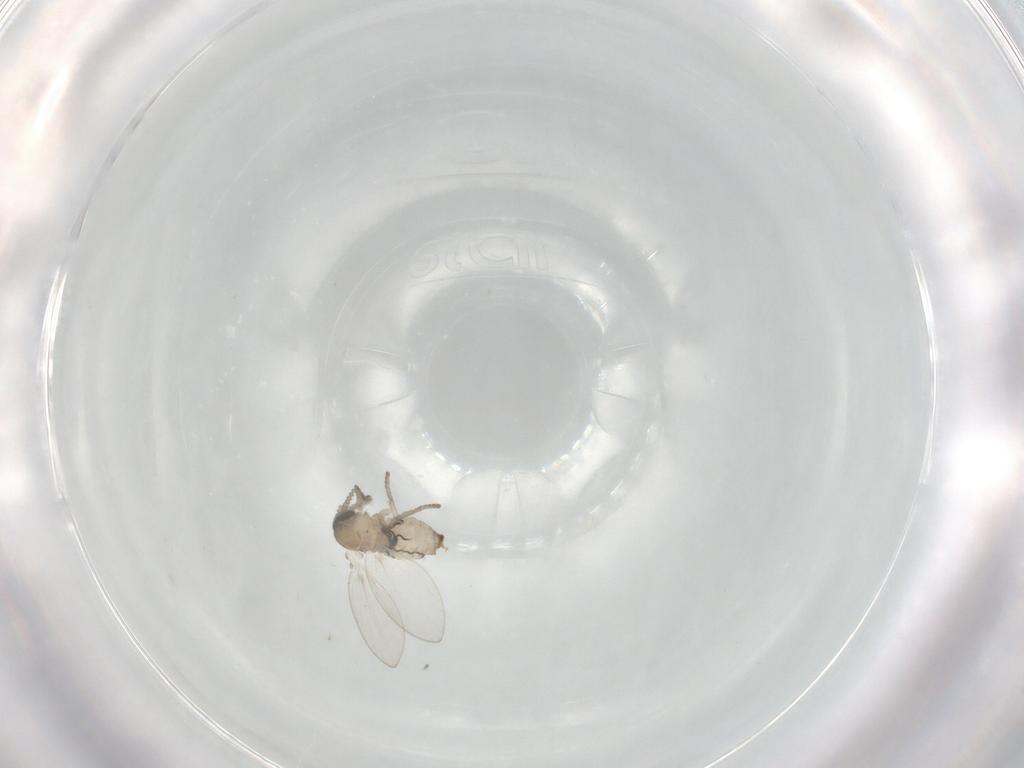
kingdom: Animalia
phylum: Arthropoda
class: Insecta
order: Diptera
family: Psychodidae
